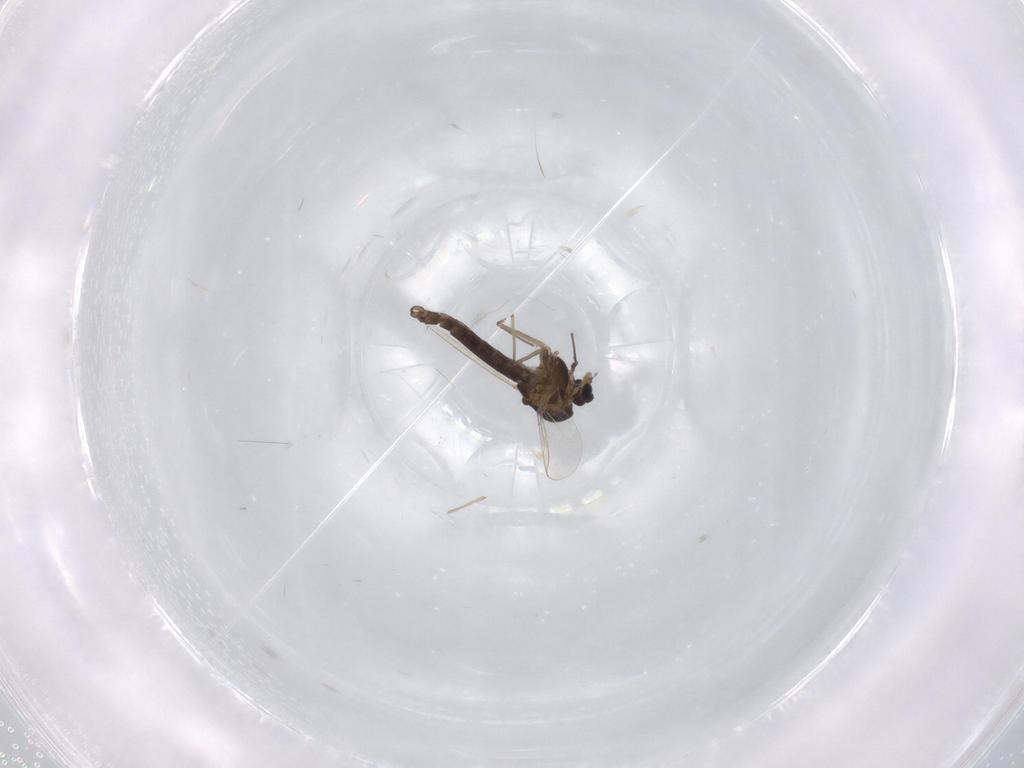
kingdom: Animalia
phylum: Arthropoda
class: Insecta
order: Diptera
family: Chironomidae
